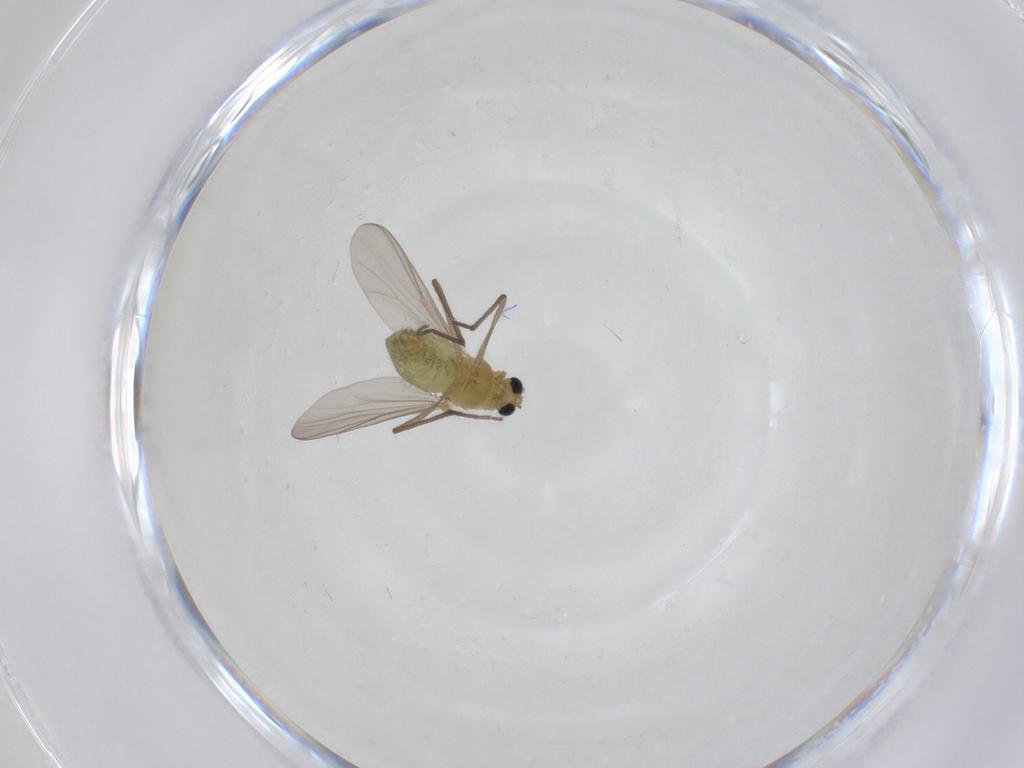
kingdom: Animalia
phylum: Arthropoda
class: Insecta
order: Diptera
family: Chironomidae
